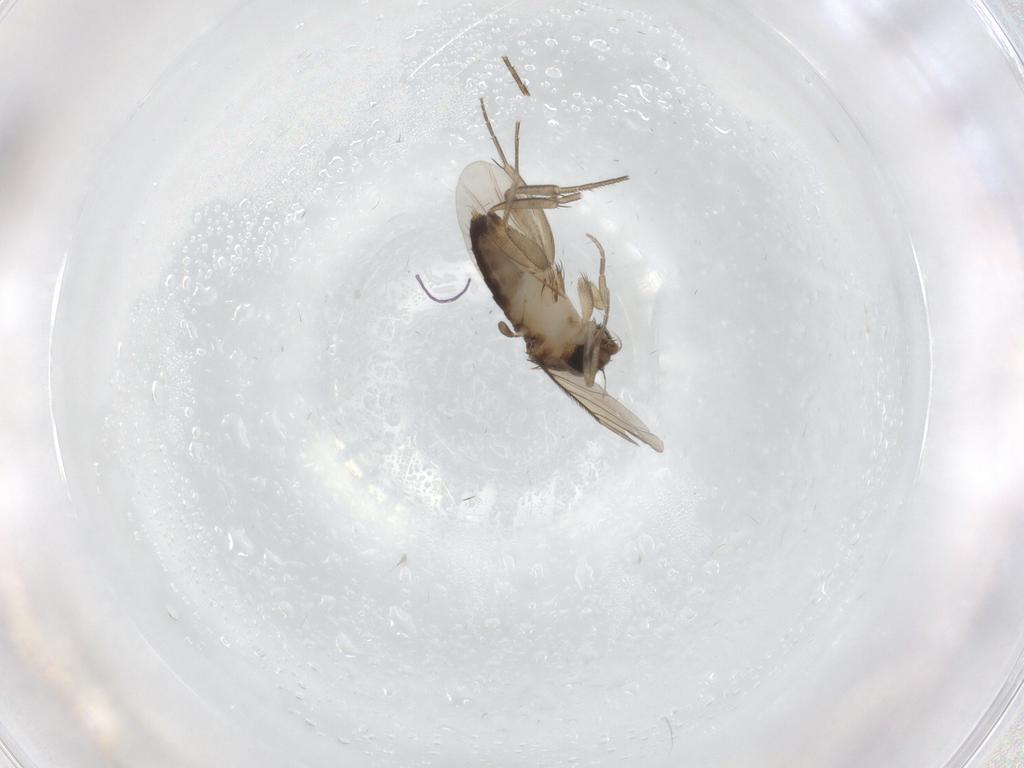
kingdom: Animalia
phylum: Arthropoda
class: Insecta
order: Diptera
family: Phoridae
